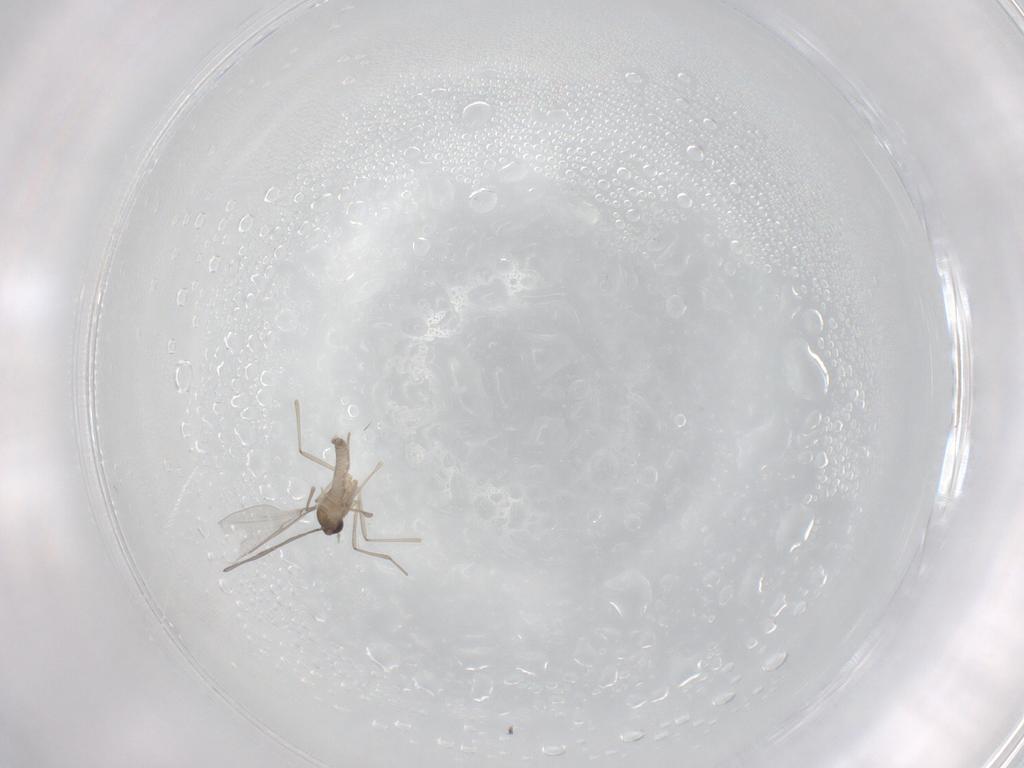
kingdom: Animalia
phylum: Arthropoda
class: Insecta
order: Diptera
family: Cecidomyiidae
